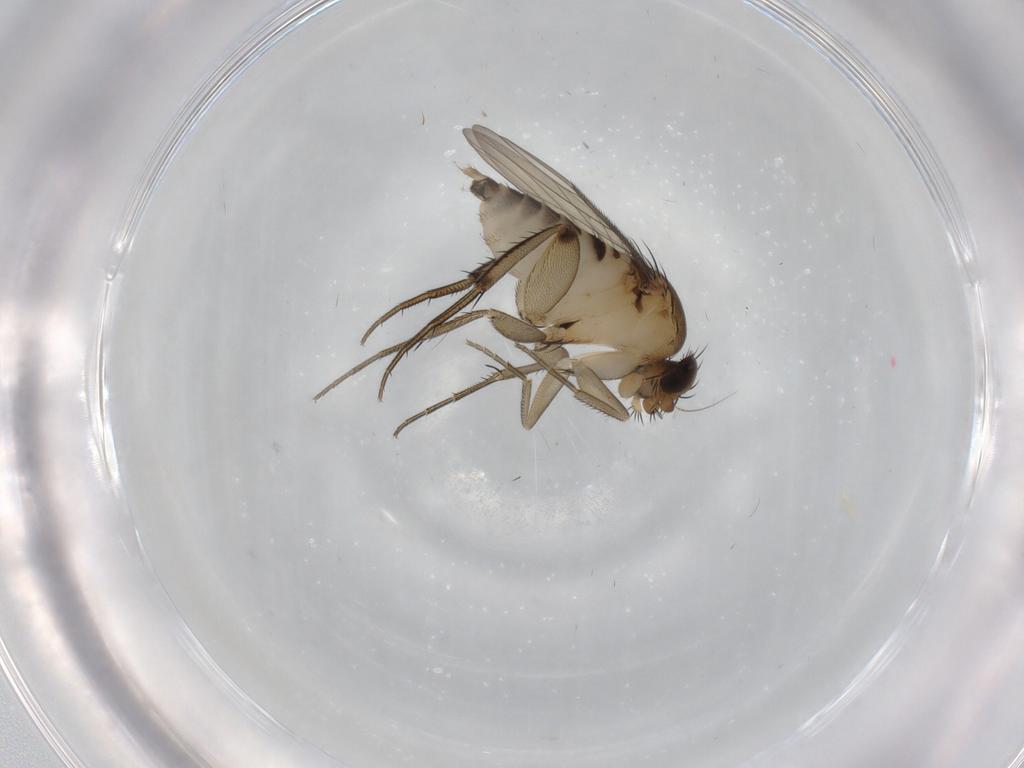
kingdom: Animalia
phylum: Arthropoda
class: Insecta
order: Diptera
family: Phoridae
